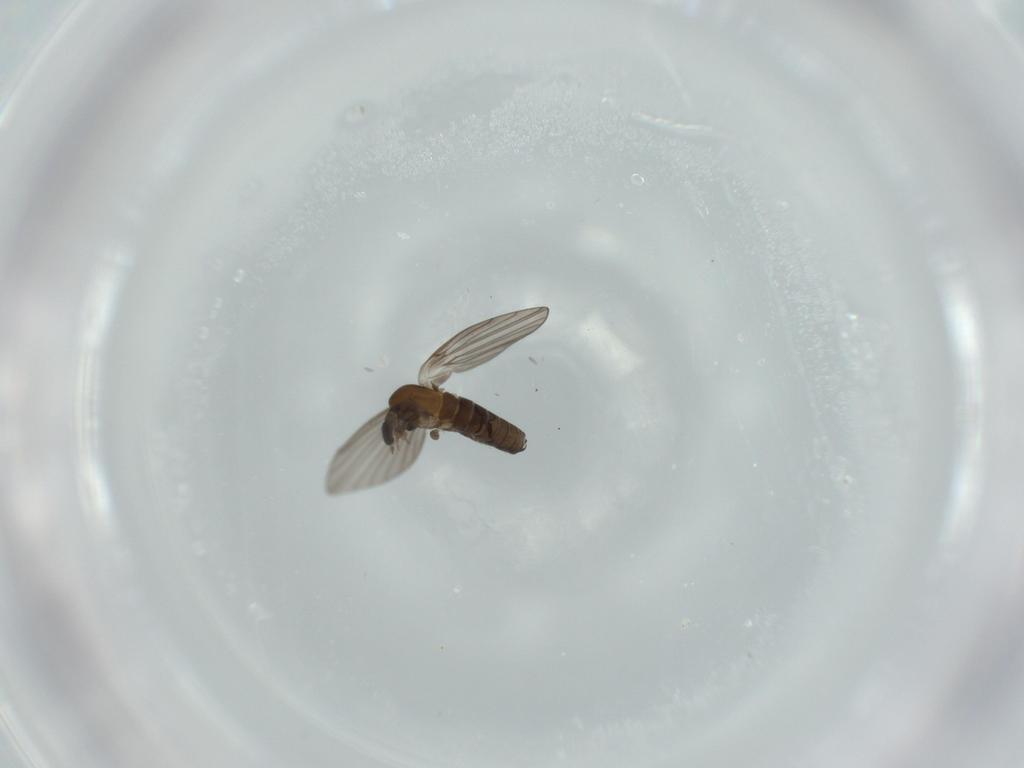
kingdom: Animalia
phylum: Arthropoda
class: Insecta
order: Diptera
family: Psychodidae
